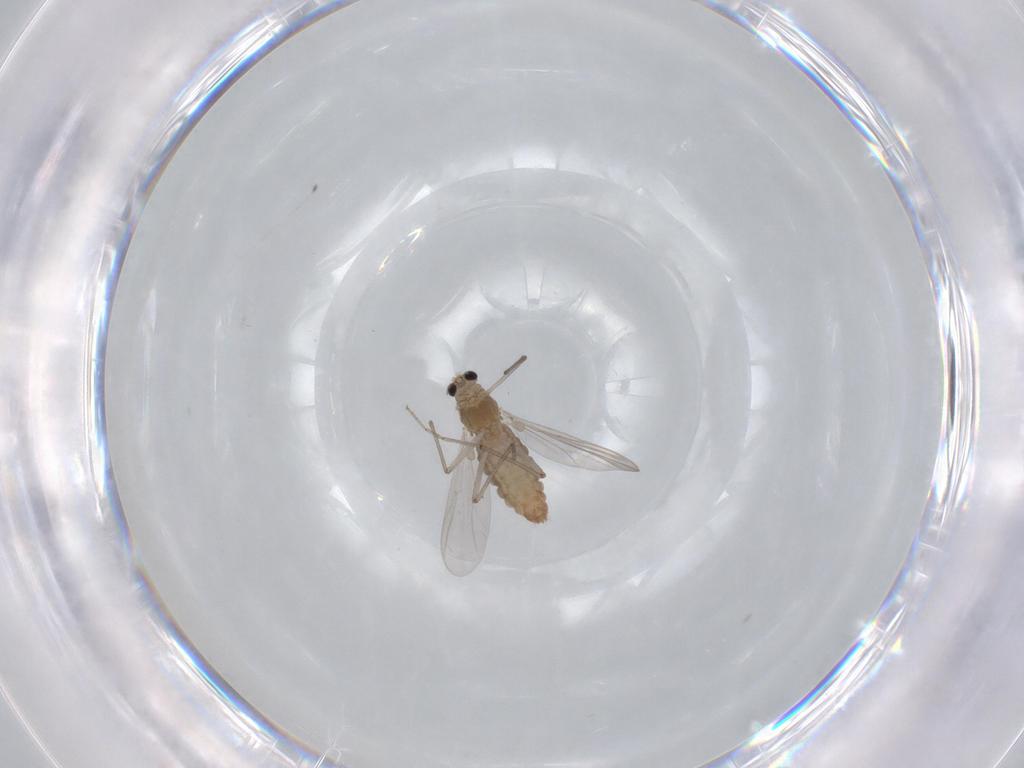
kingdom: Animalia
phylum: Arthropoda
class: Insecta
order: Diptera
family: Chironomidae
